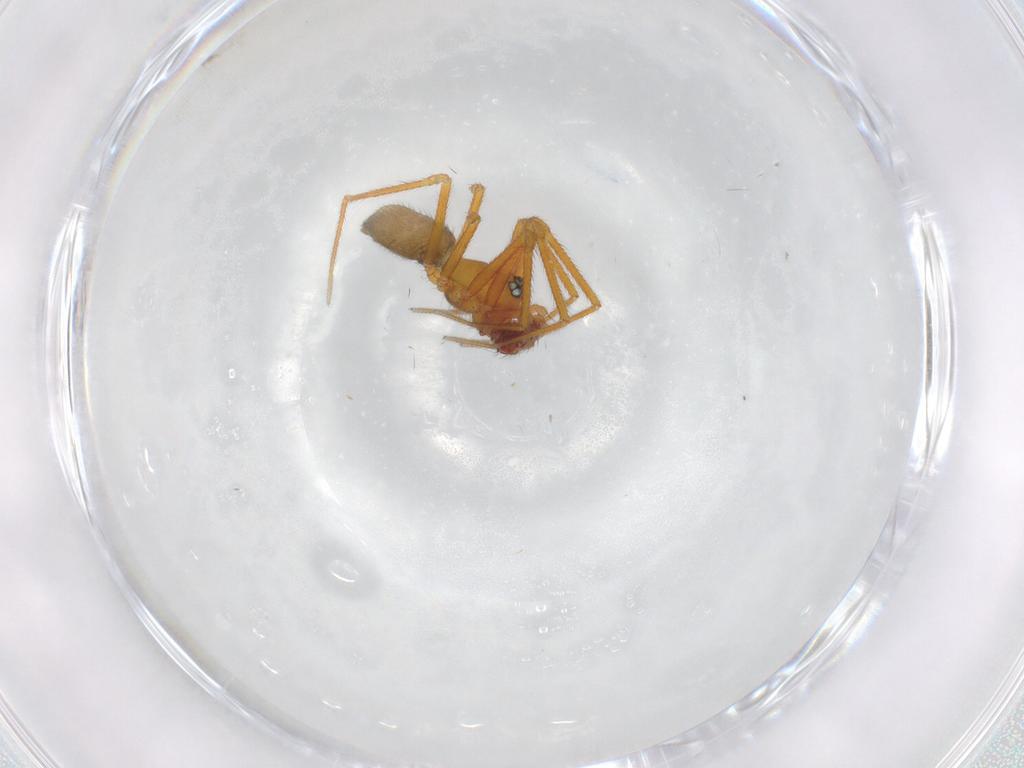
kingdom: Animalia
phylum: Arthropoda
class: Arachnida
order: Araneae
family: Linyphiidae
